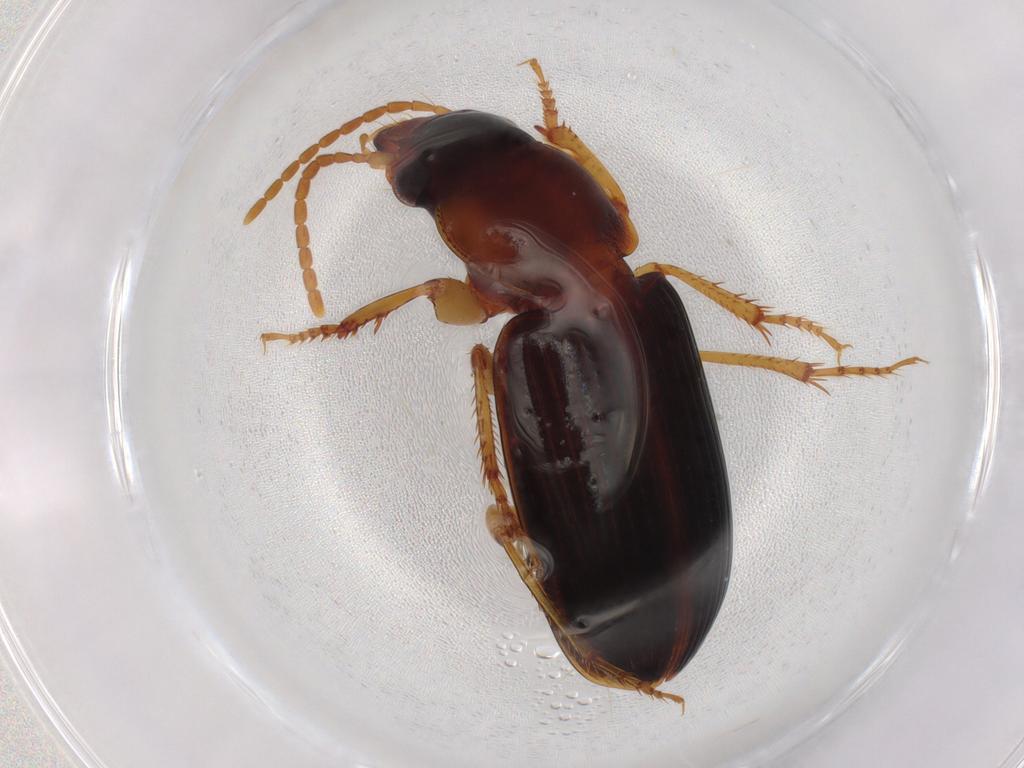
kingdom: Animalia
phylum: Arthropoda
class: Insecta
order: Coleoptera
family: Carabidae
